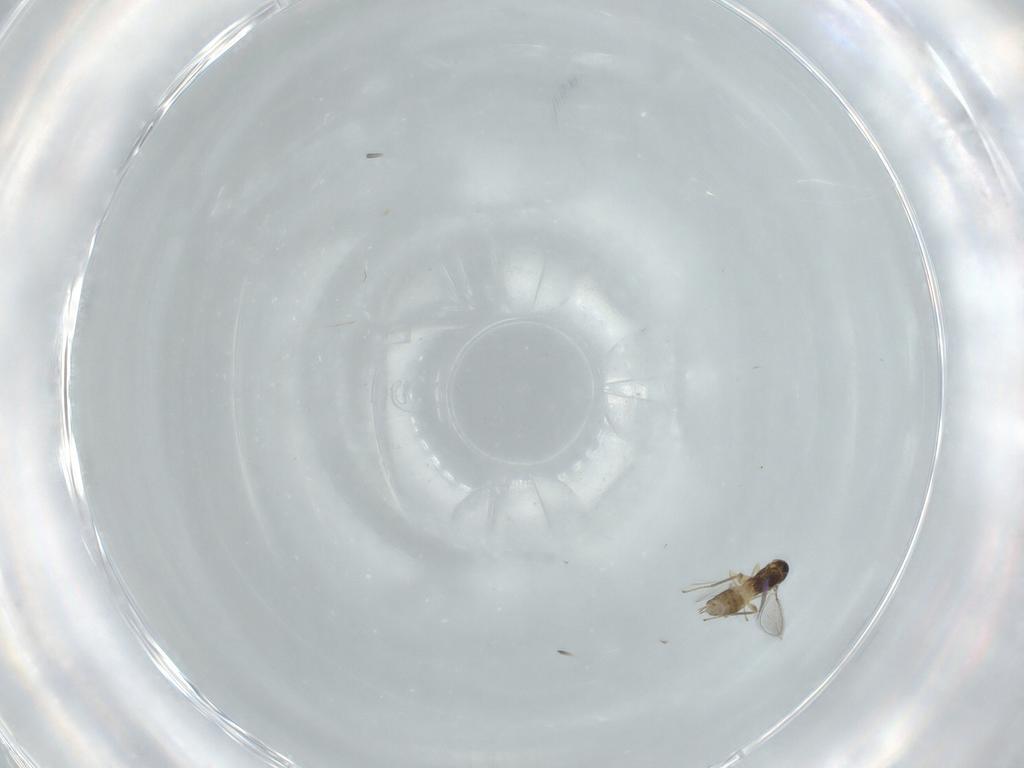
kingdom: Animalia
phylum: Arthropoda
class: Insecta
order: Hymenoptera
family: Mymaridae
